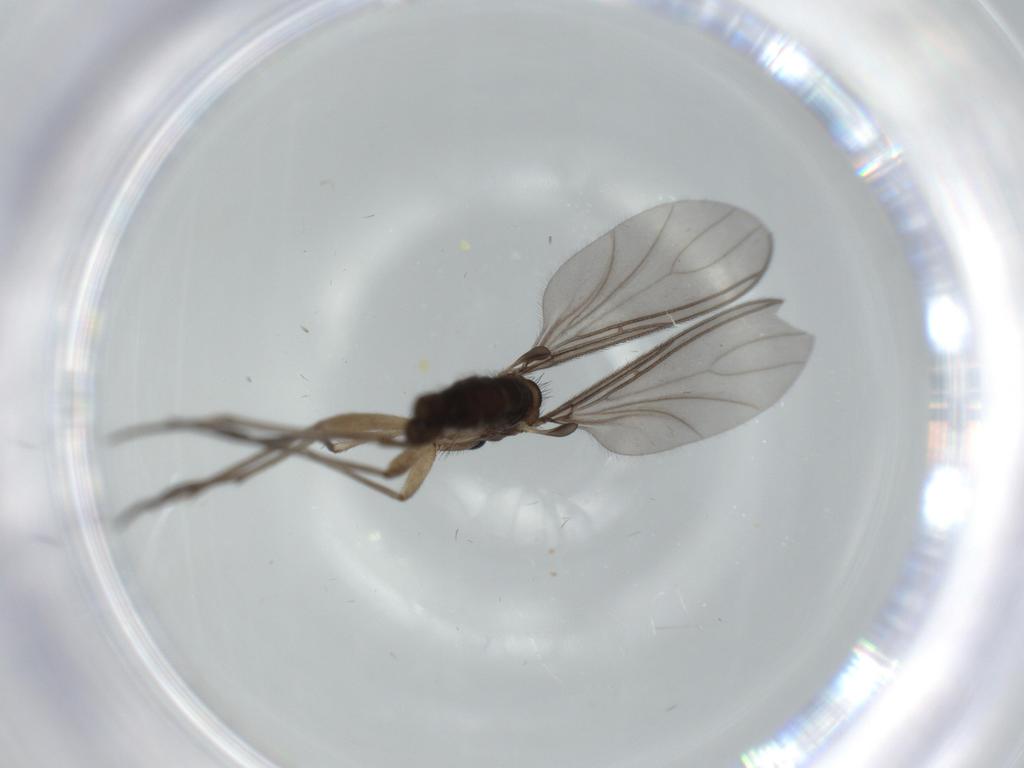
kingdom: Animalia
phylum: Arthropoda
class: Insecta
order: Diptera
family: Sciaridae
